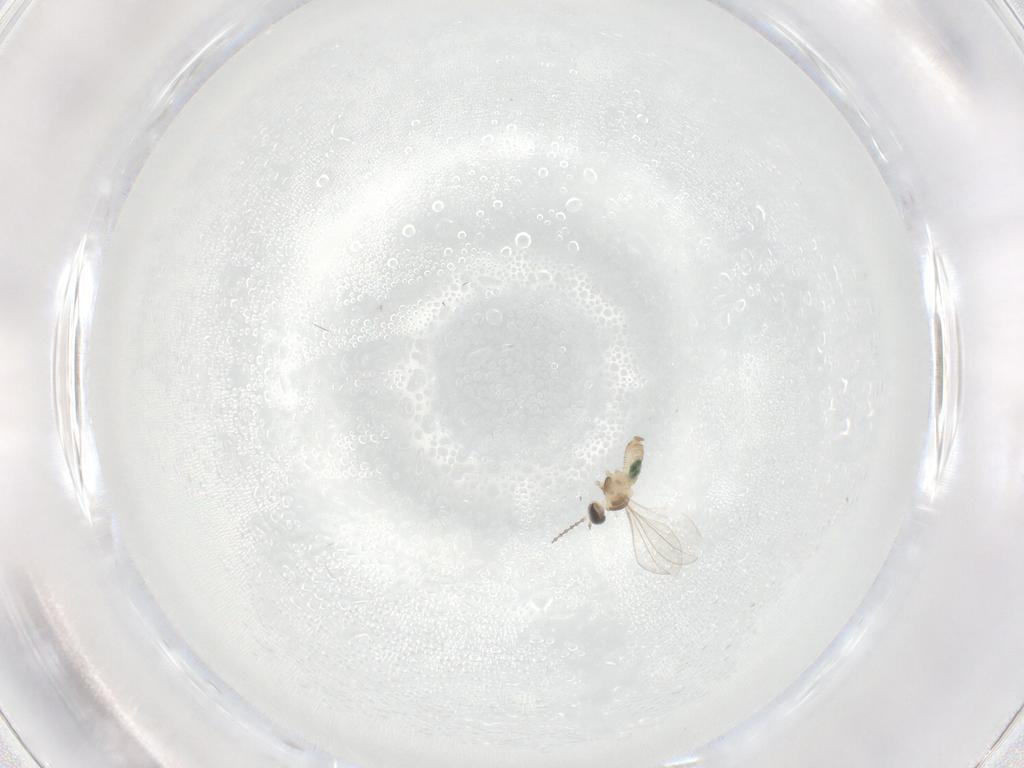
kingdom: Animalia
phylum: Arthropoda
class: Insecta
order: Diptera
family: Cecidomyiidae
